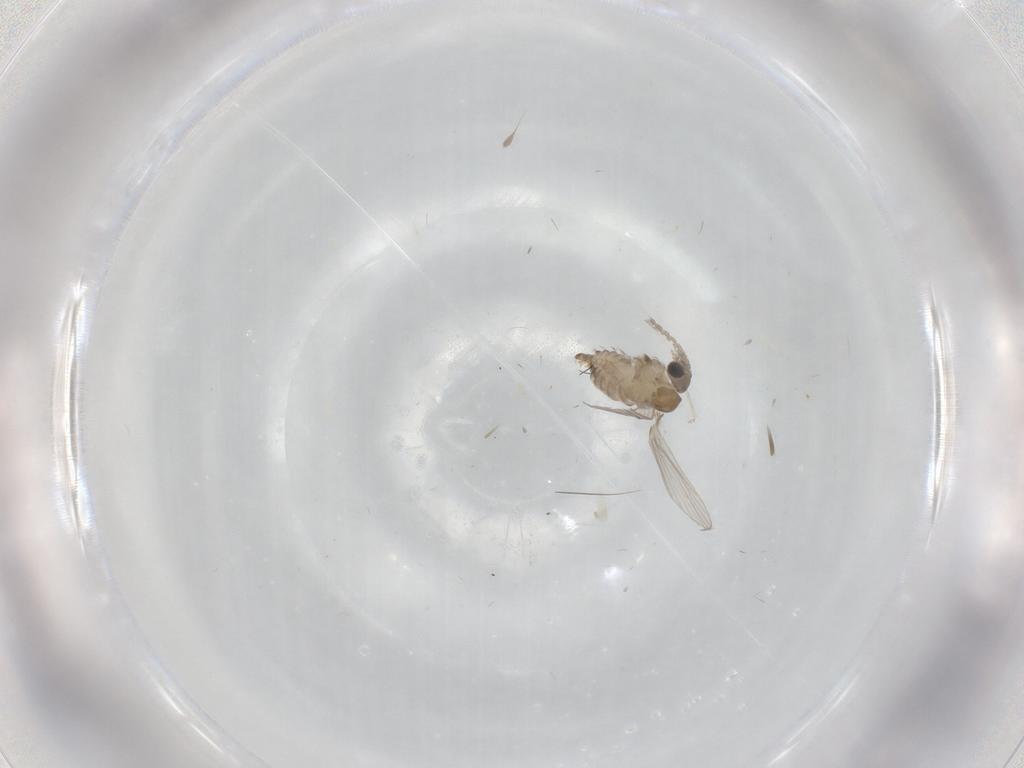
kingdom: Animalia
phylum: Arthropoda
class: Insecta
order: Diptera
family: Cecidomyiidae
